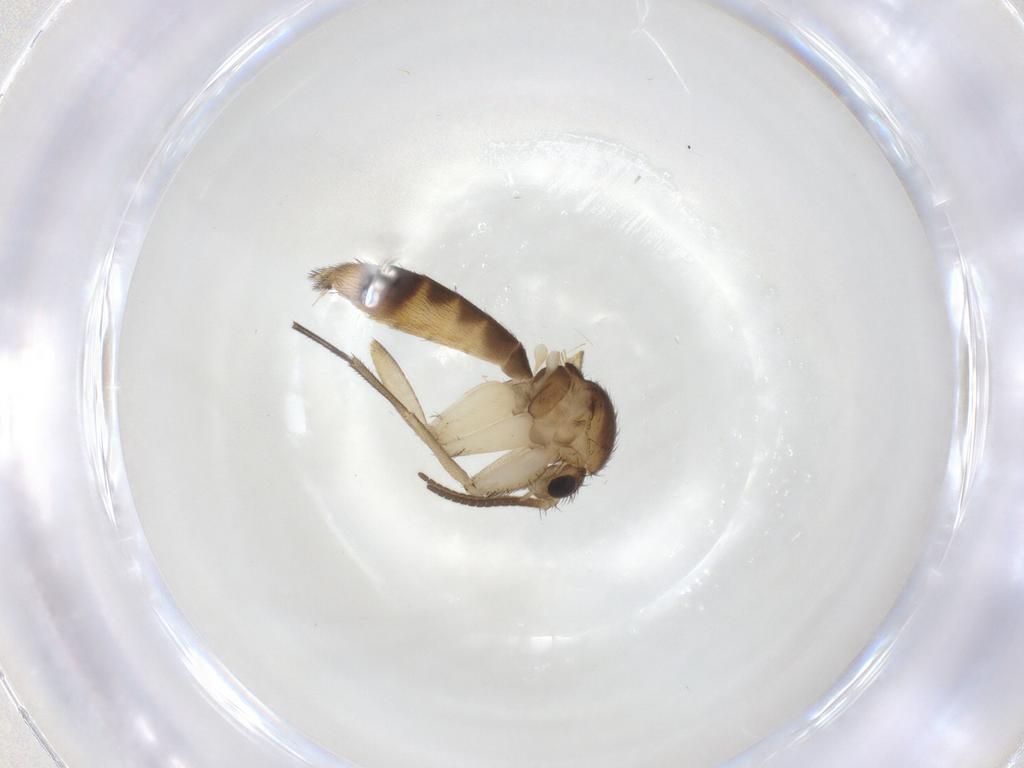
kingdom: Animalia
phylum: Arthropoda
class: Insecta
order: Diptera
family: Mycetophilidae
